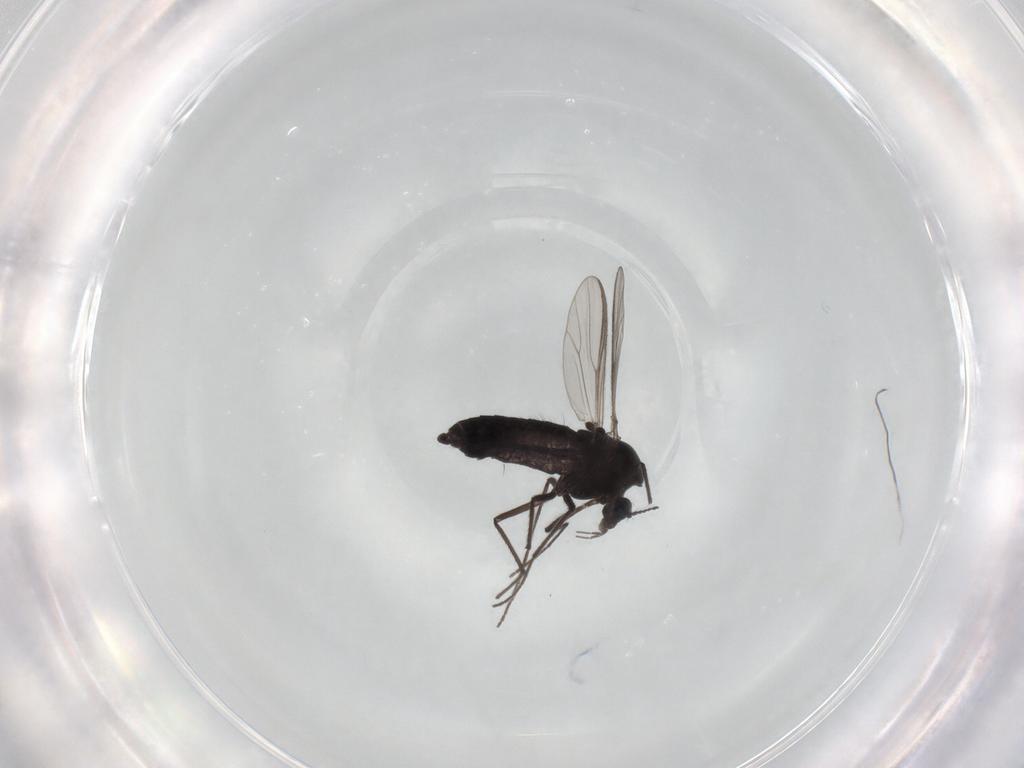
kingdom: Animalia
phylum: Arthropoda
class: Insecta
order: Diptera
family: Chironomidae
